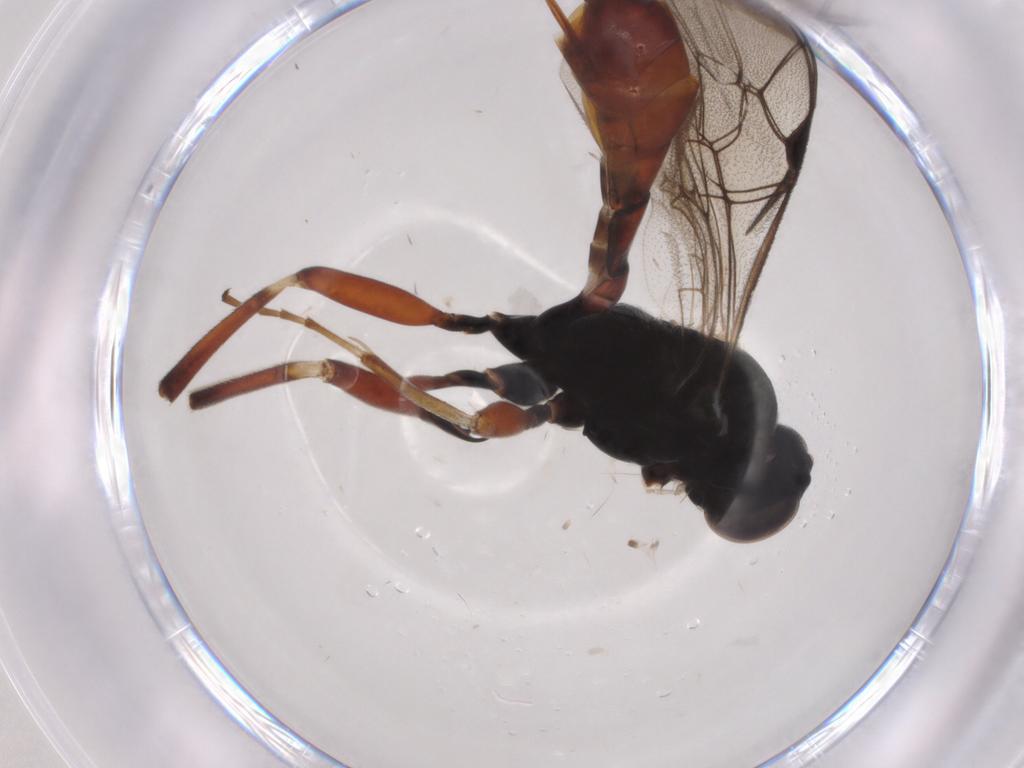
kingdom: Animalia
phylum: Arthropoda
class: Insecta
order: Hymenoptera
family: Ichneumonidae
